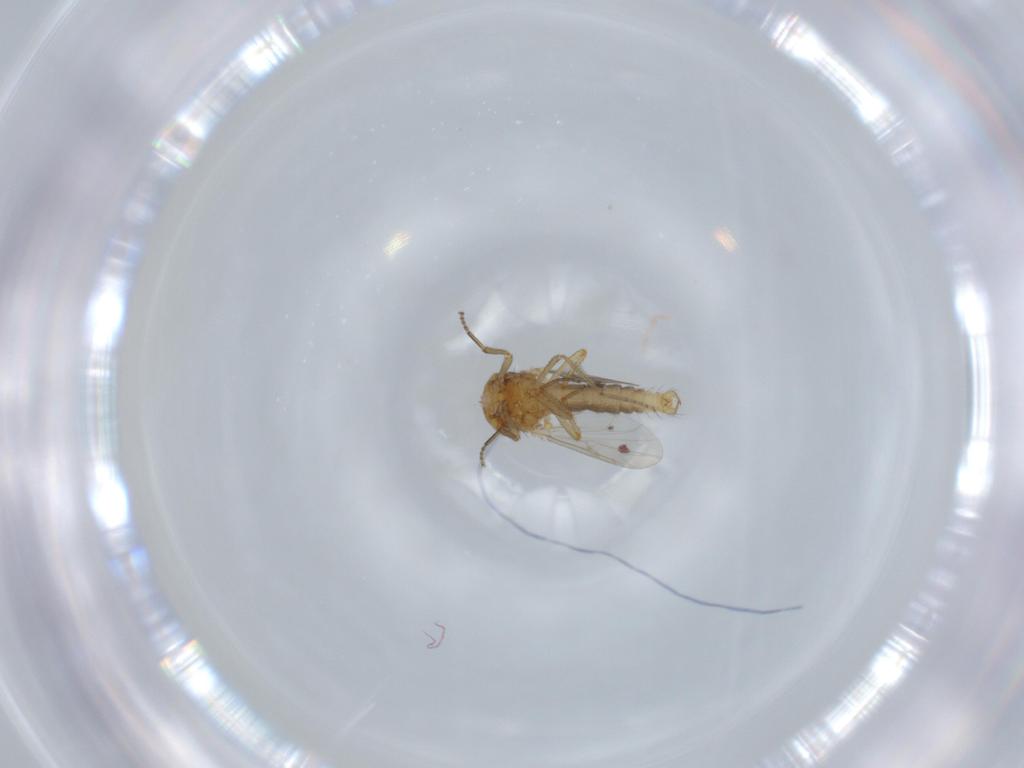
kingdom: Animalia
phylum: Arthropoda
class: Insecta
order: Diptera
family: Ceratopogonidae
